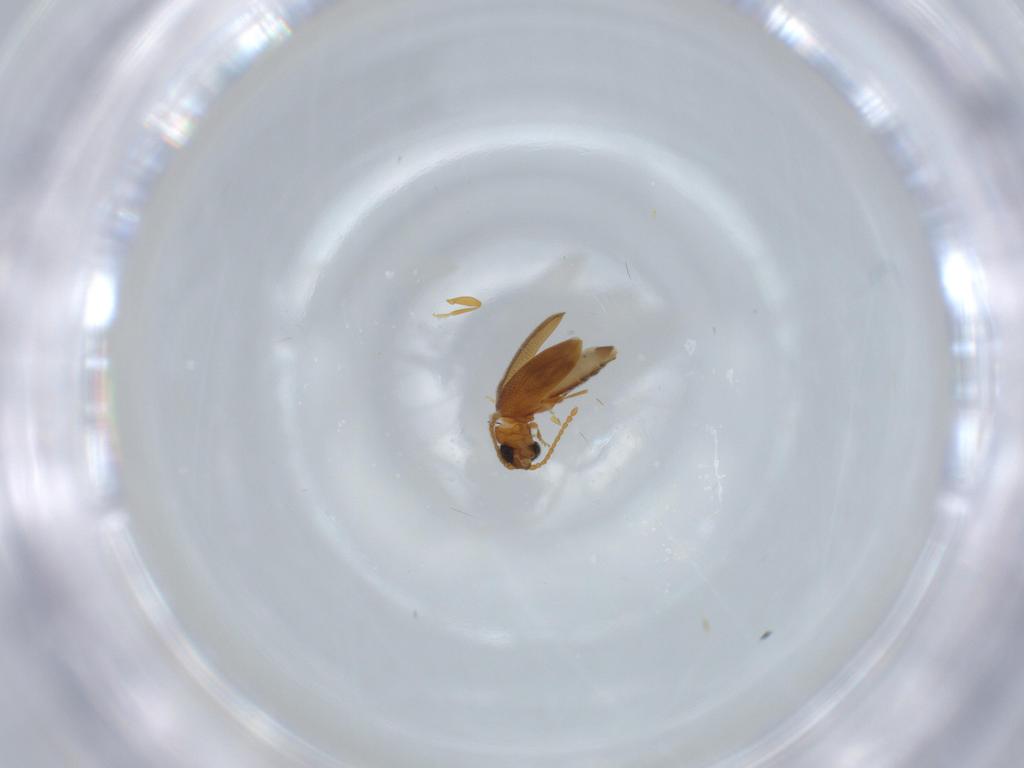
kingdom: Animalia
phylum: Arthropoda
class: Insecta
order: Coleoptera
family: Aderidae
